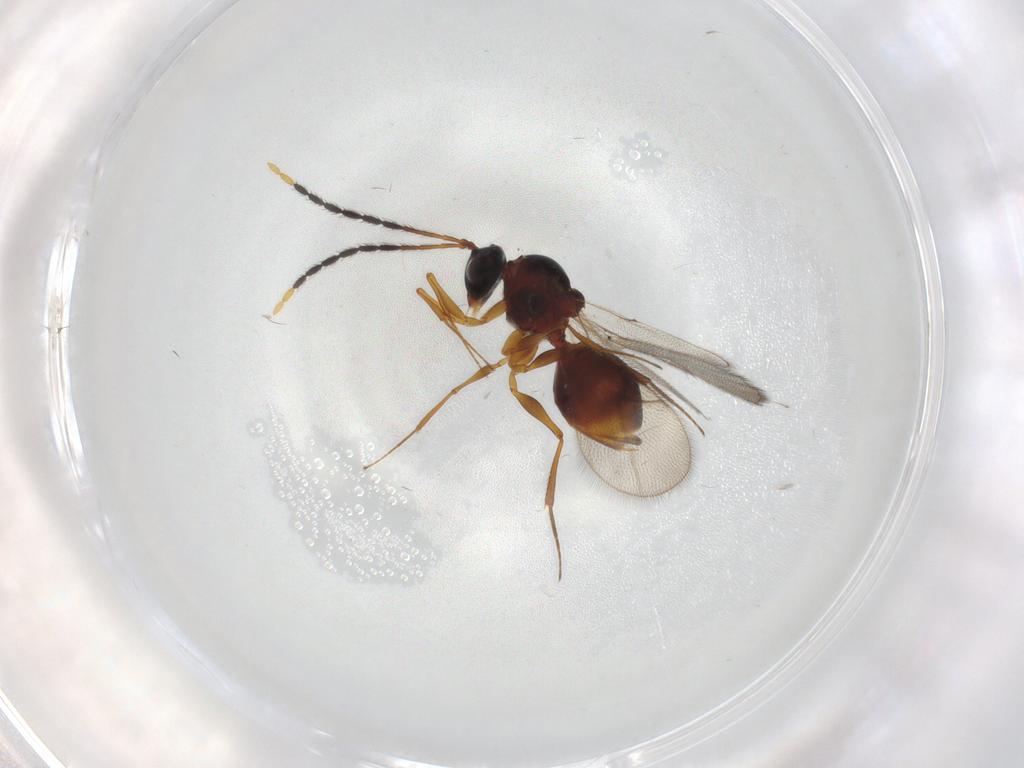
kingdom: Animalia
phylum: Arthropoda
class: Insecta
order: Hymenoptera
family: Figitidae
